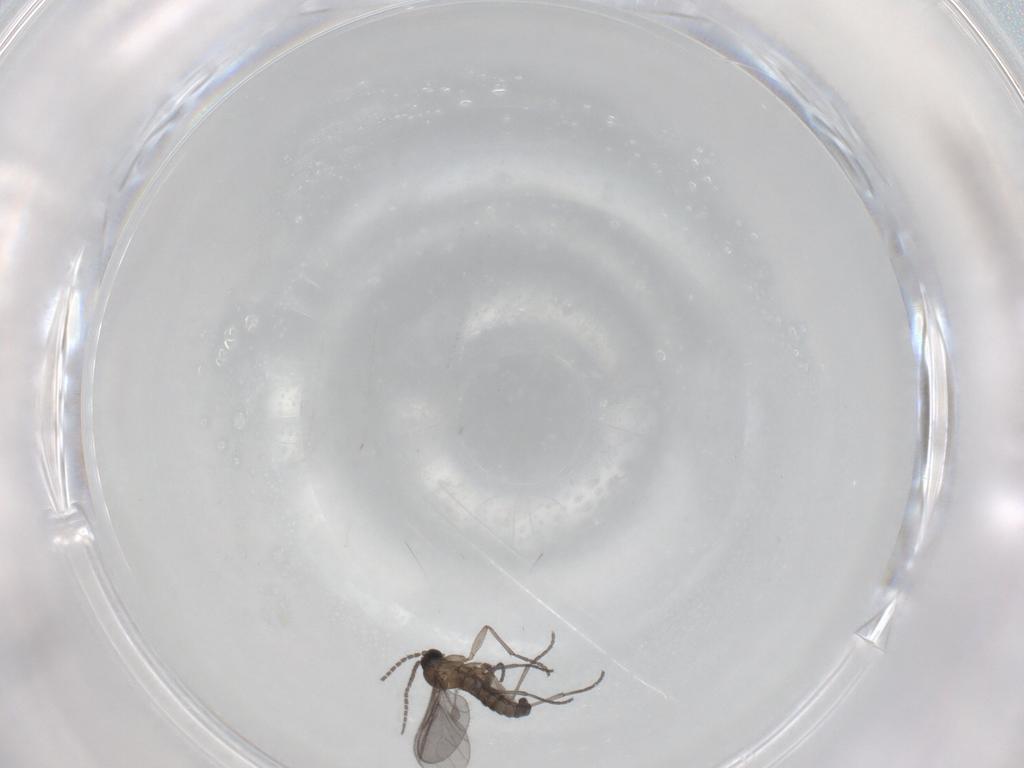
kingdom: Animalia
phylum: Arthropoda
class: Insecta
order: Diptera
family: Sciaridae
